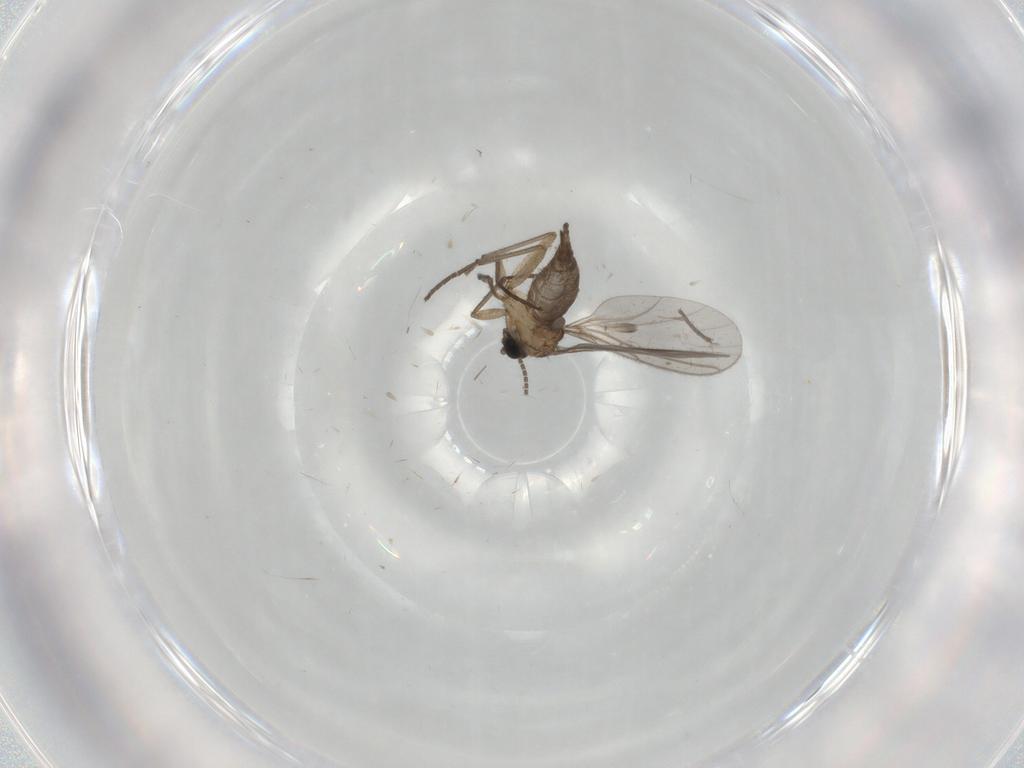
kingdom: Animalia
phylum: Arthropoda
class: Insecta
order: Diptera
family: Sciaridae
